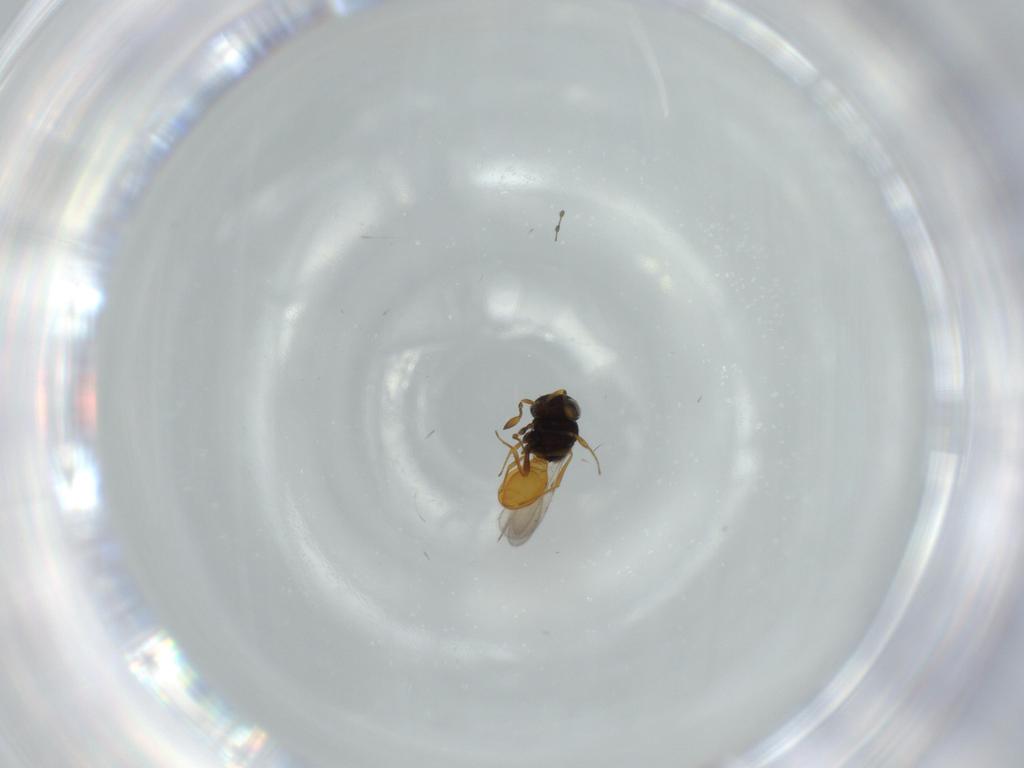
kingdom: Animalia
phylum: Arthropoda
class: Insecta
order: Hymenoptera
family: Scelionidae
